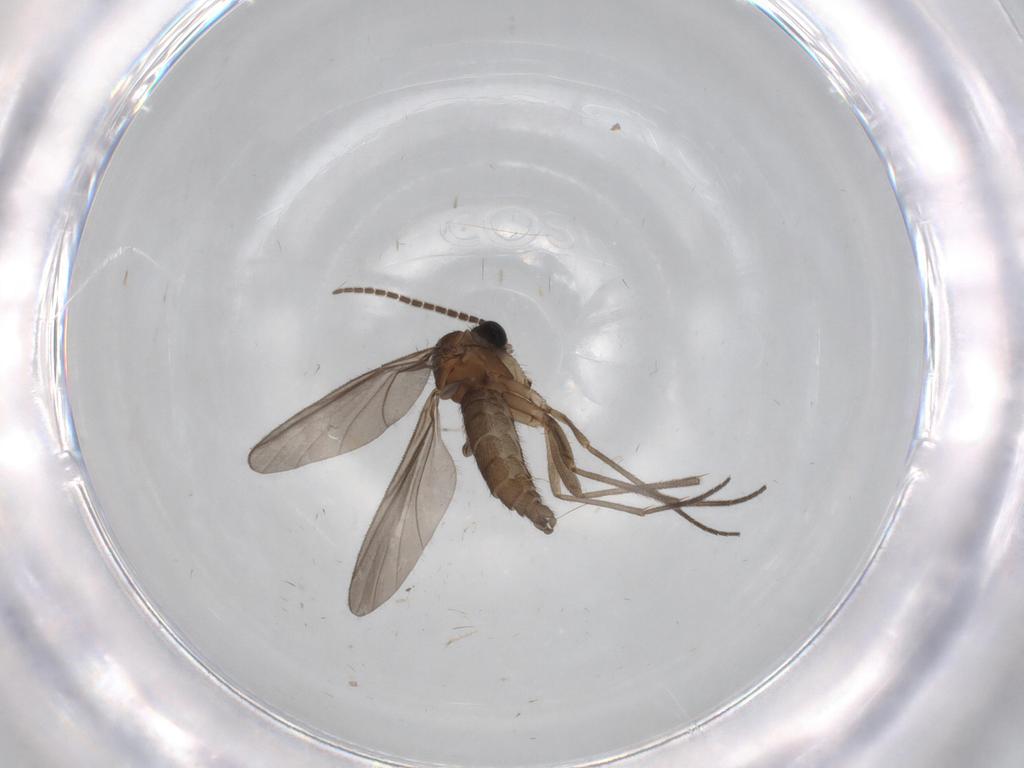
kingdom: Animalia
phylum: Arthropoda
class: Insecta
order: Diptera
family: Sciaridae
